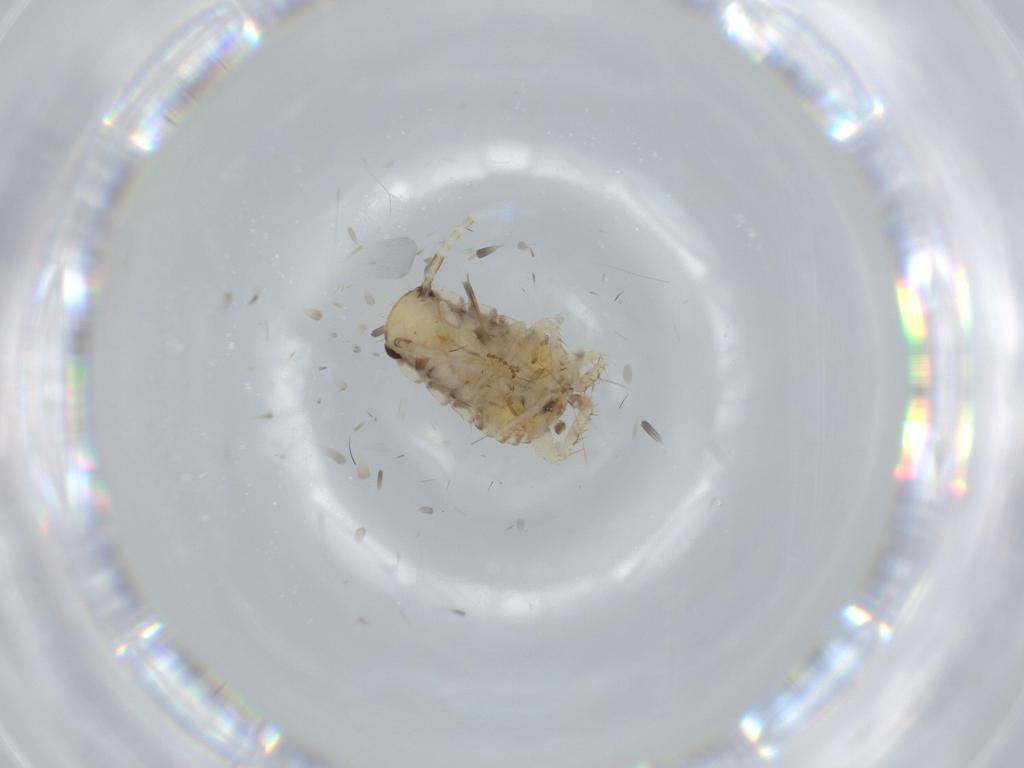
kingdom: Animalia
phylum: Arthropoda
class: Insecta
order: Blattodea
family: Ectobiidae
